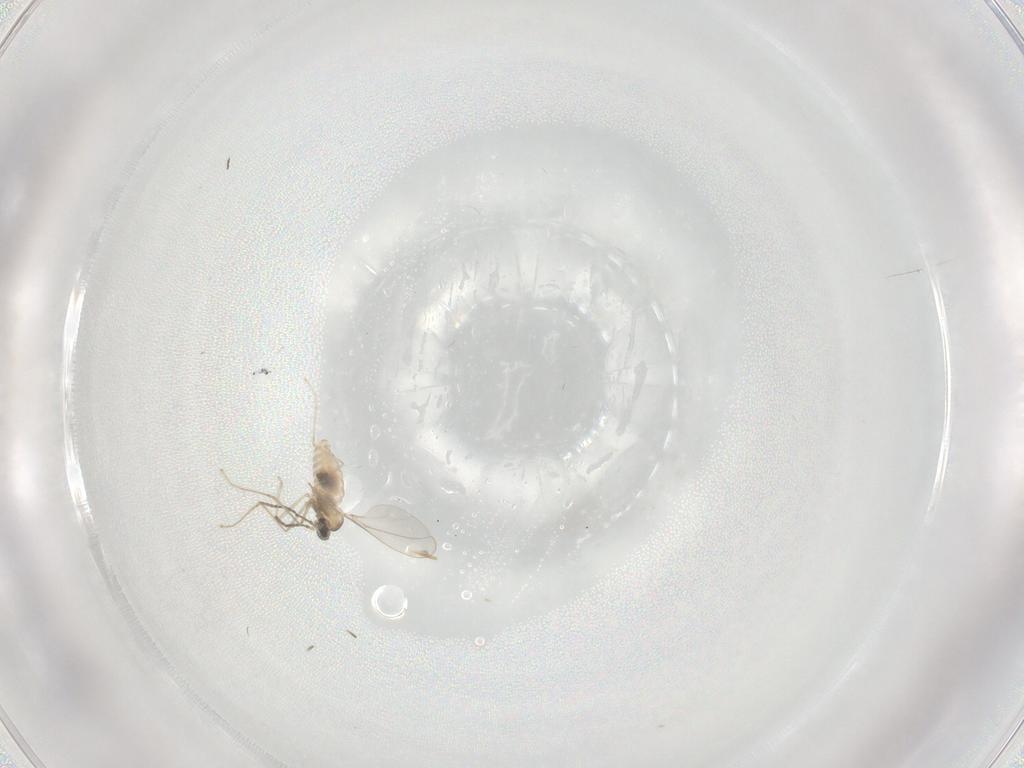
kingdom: Animalia
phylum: Arthropoda
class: Insecta
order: Diptera
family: Cecidomyiidae
